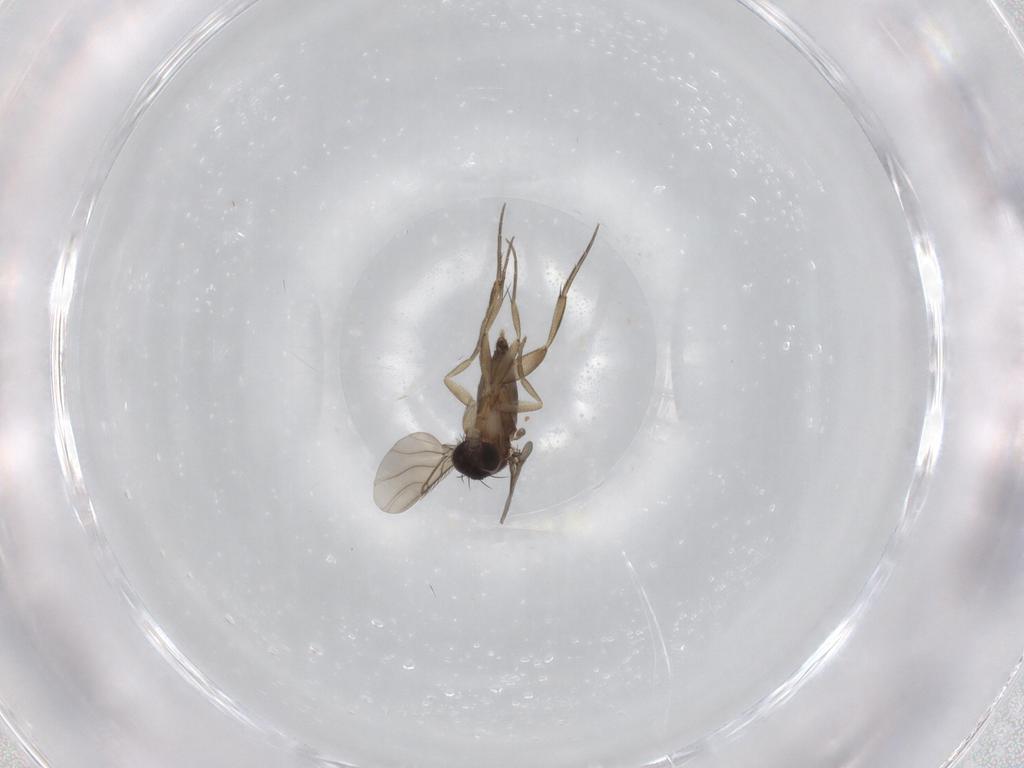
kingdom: Animalia
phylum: Arthropoda
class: Insecta
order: Diptera
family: Phoridae
